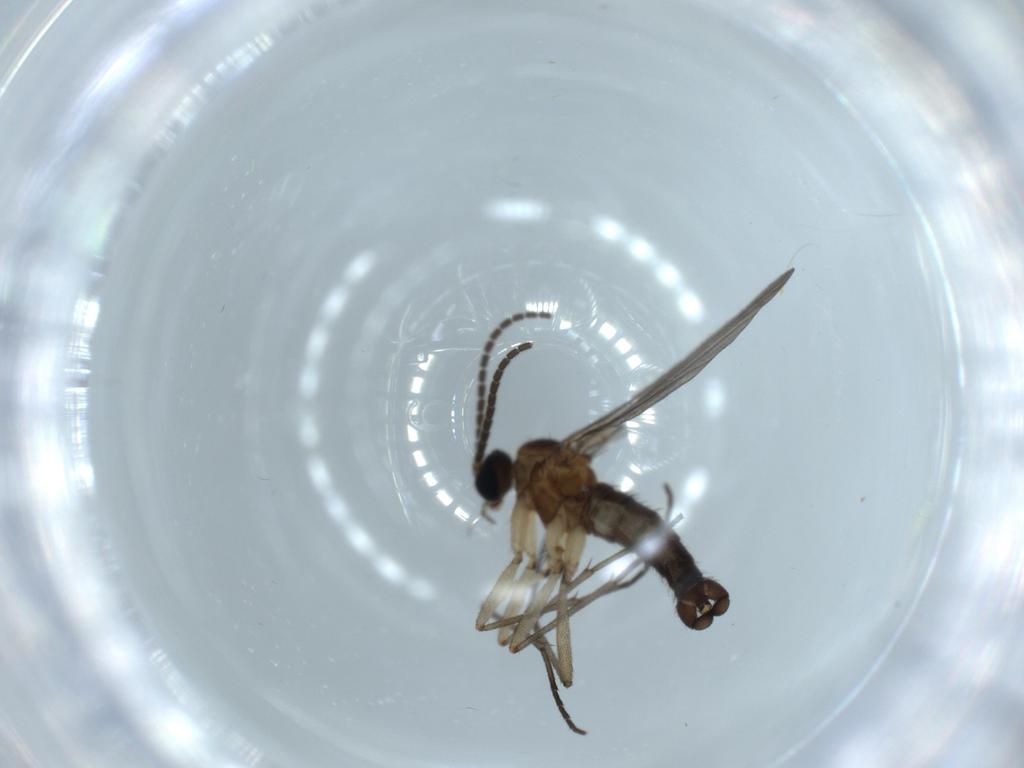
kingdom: Animalia
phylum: Arthropoda
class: Insecta
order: Diptera
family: Sciaridae
